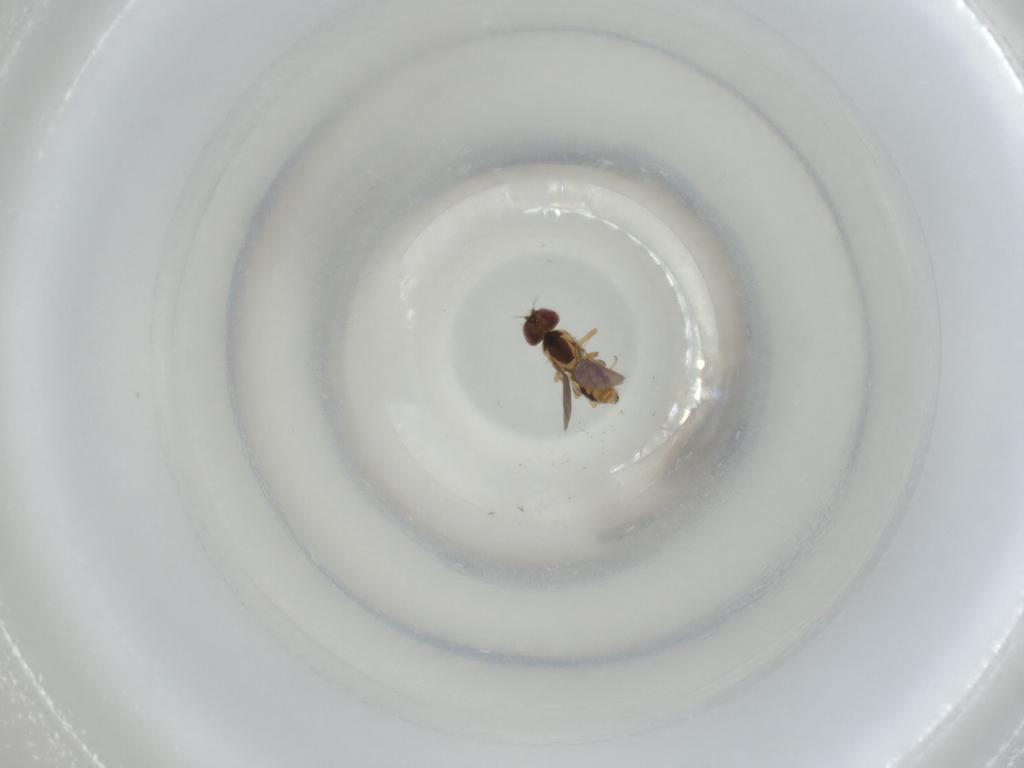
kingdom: Animalia
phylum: Arthropoda
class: Insecta
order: Diptera
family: Asteiidae
